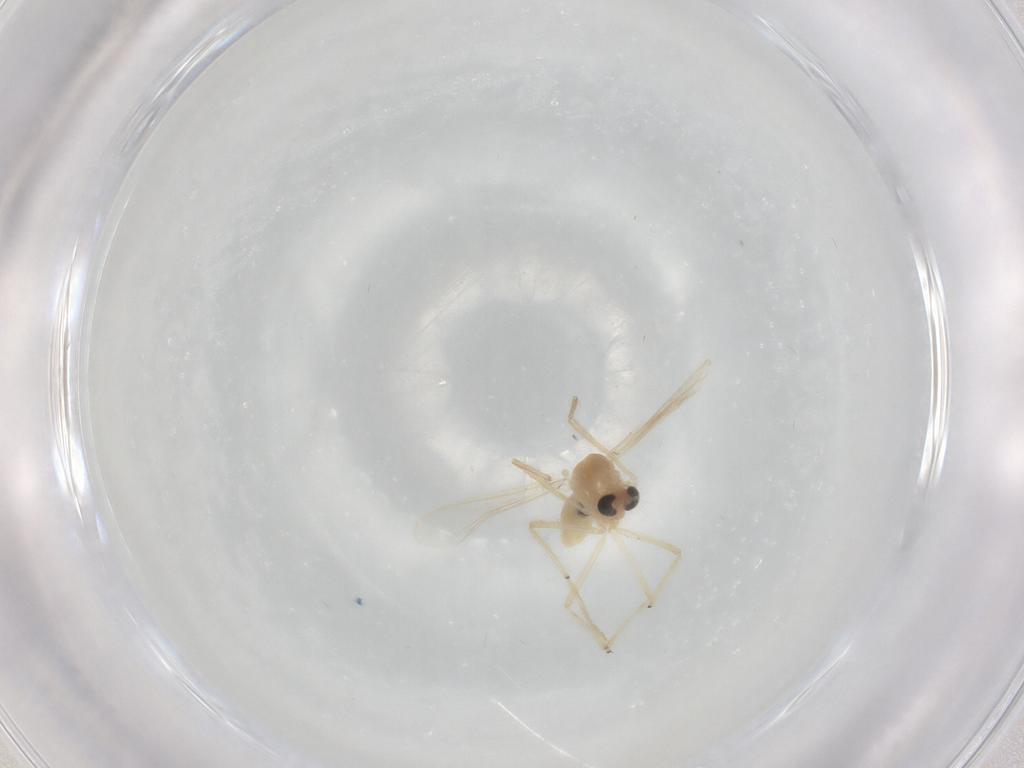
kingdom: Animalia
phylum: Arthropoda
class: Insecta
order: Diptera
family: Chironomidae
